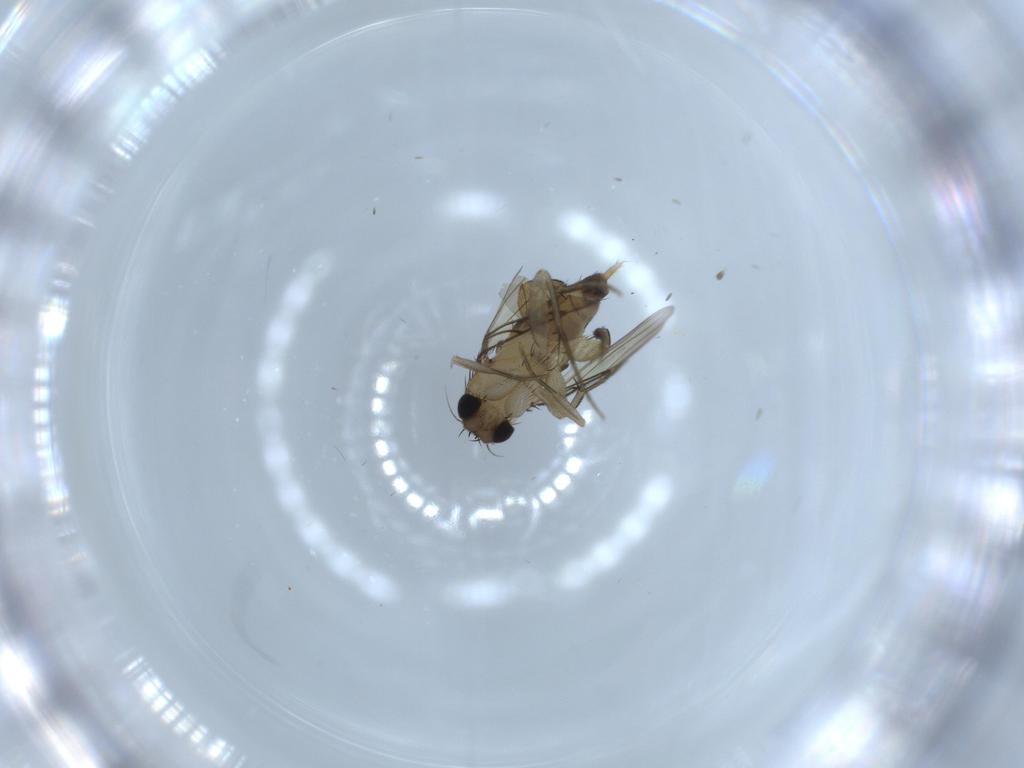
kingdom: Animalia
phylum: Arthropoda
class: Insecta
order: Diptera
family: Phoridae
